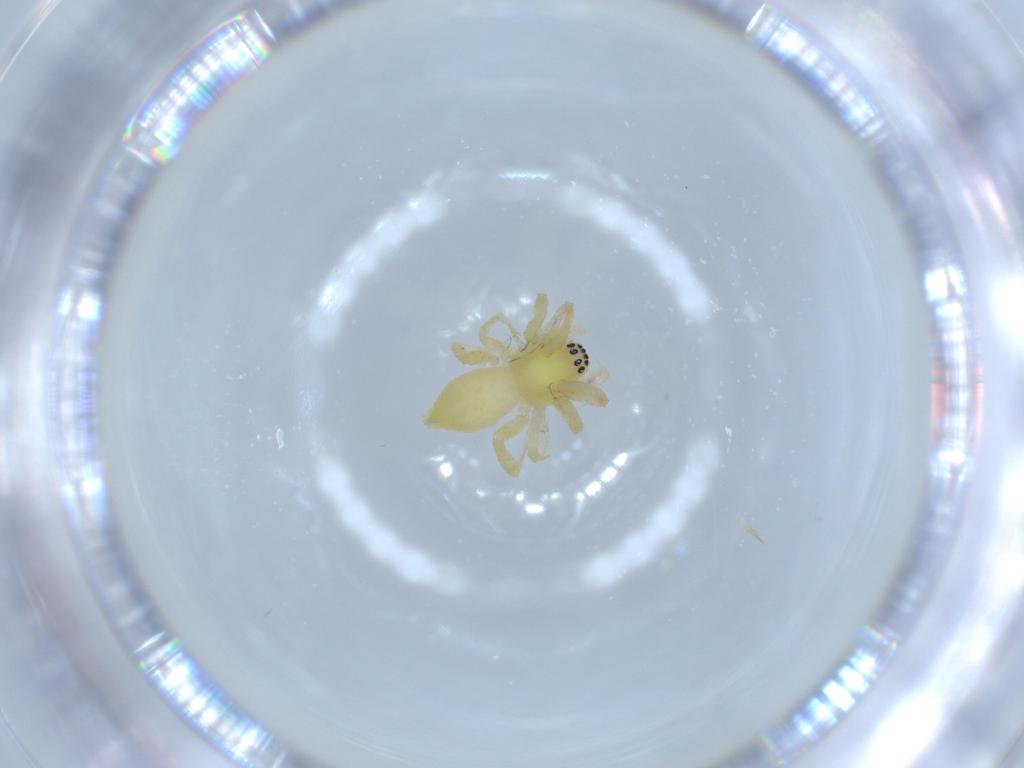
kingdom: Animalia
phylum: Arthropoda
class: Arachnida
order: Araneae
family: Anyphaenidae
